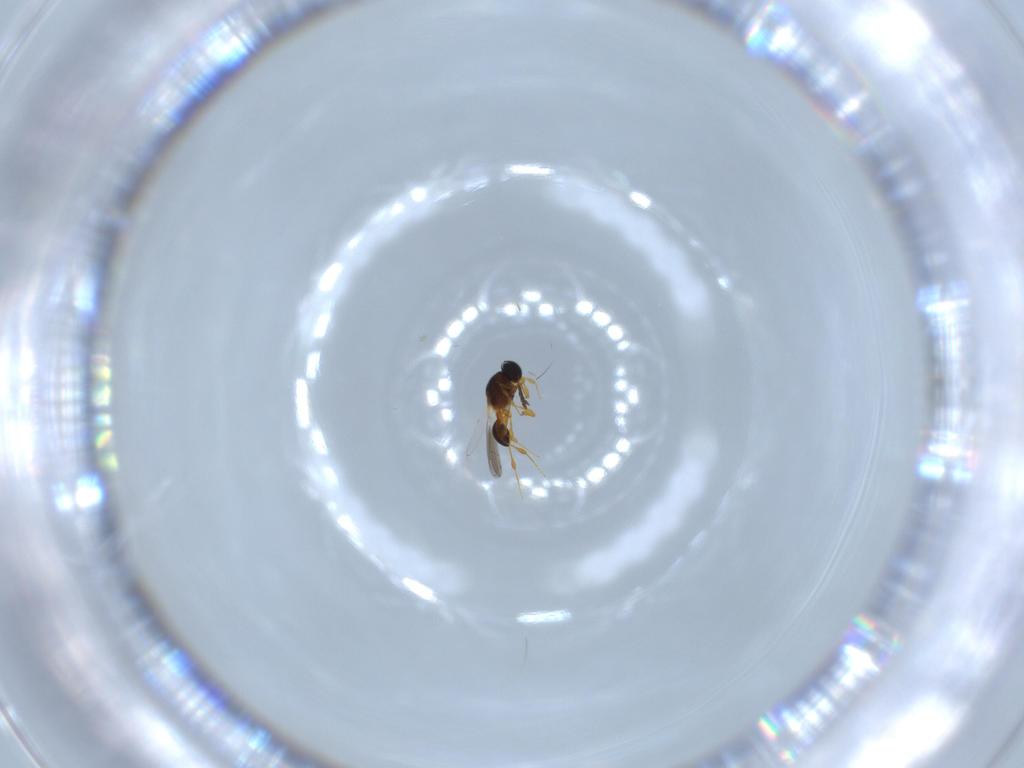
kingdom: Animalia
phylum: Arthropoda
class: Insecta
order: Hymenoptera
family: Platygastridae
